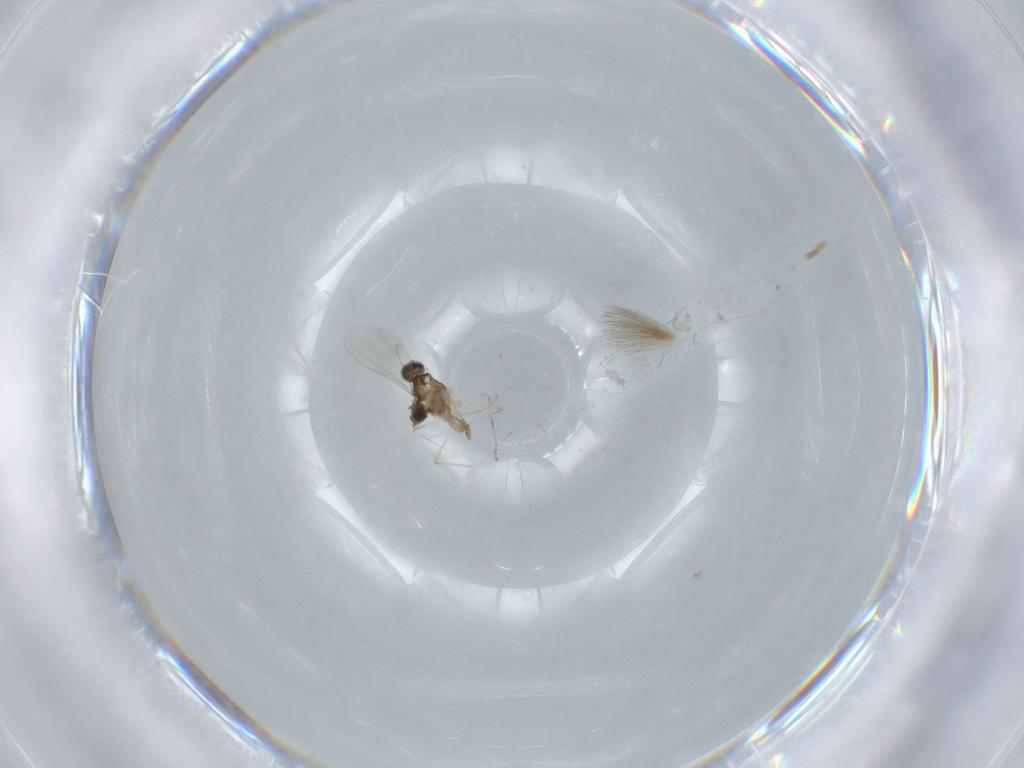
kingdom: Animalia
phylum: Arthropoda
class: Insecta
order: Diptera
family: Cecidomyiidae
